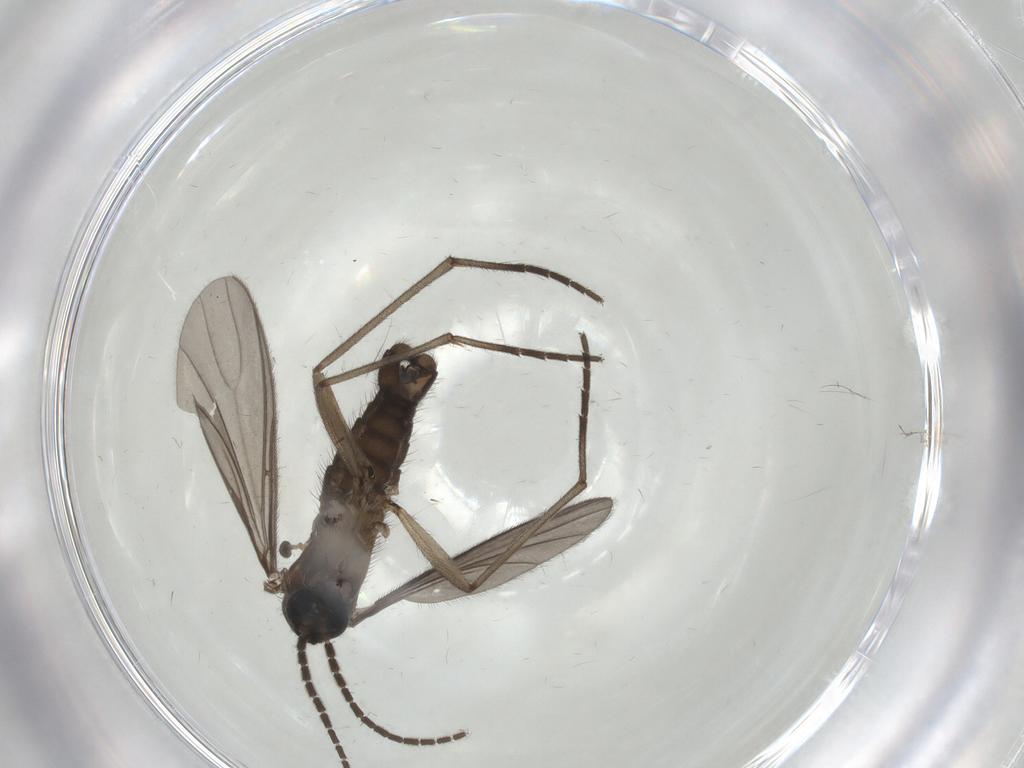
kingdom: Animalia
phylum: Arthropoda
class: Insecta
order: Diptera
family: Sciaridae
